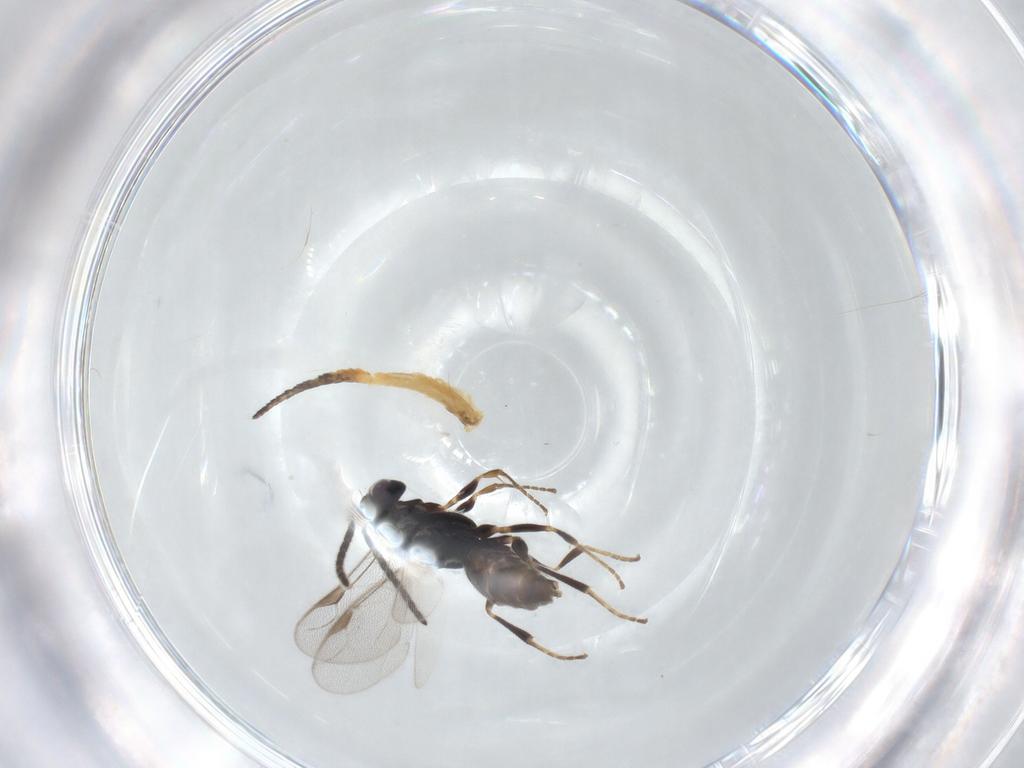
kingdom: Animalia
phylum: Arthropoda
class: Insecta
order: Hymenoptera
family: Dryinidae
